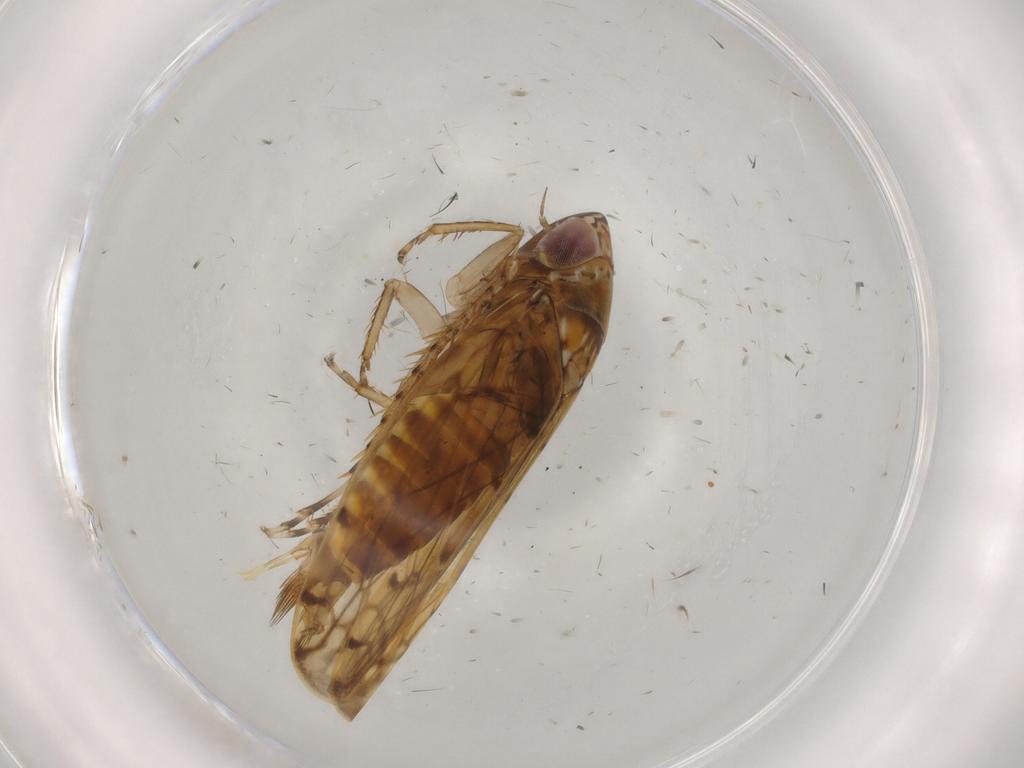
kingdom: Animalia
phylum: Arthropoda
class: Insecta
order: Hemiptera
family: Cicadellidae
